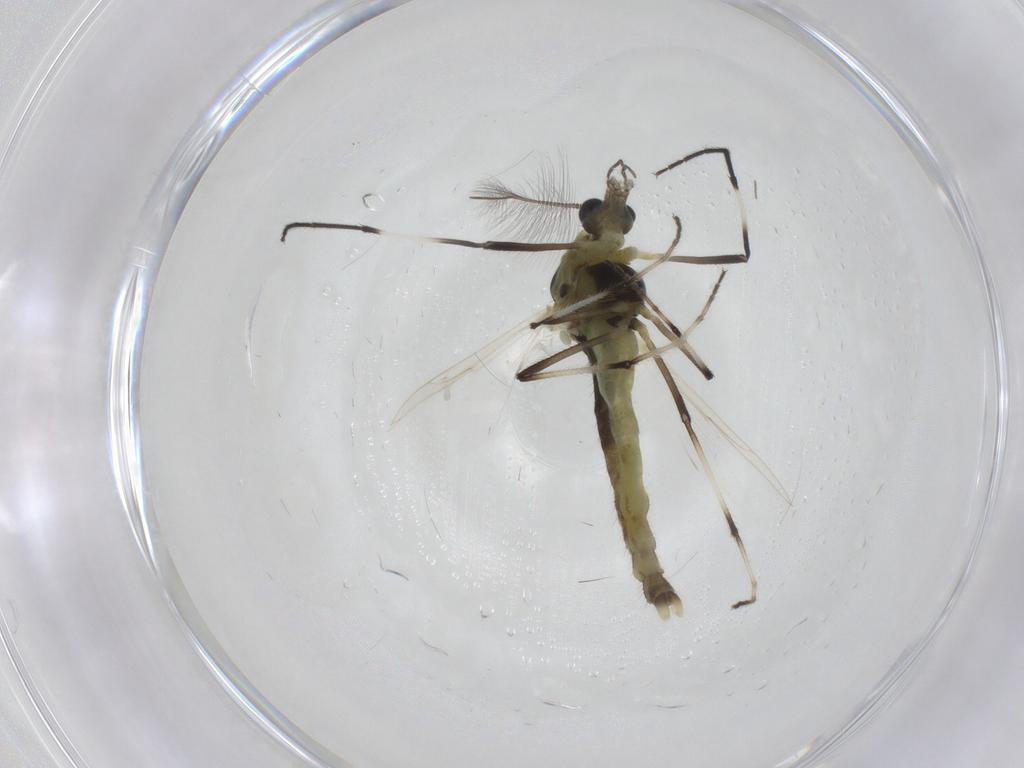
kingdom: Animalia
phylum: Arthropoda
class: Insecta
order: Diptera
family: Chironomidae
